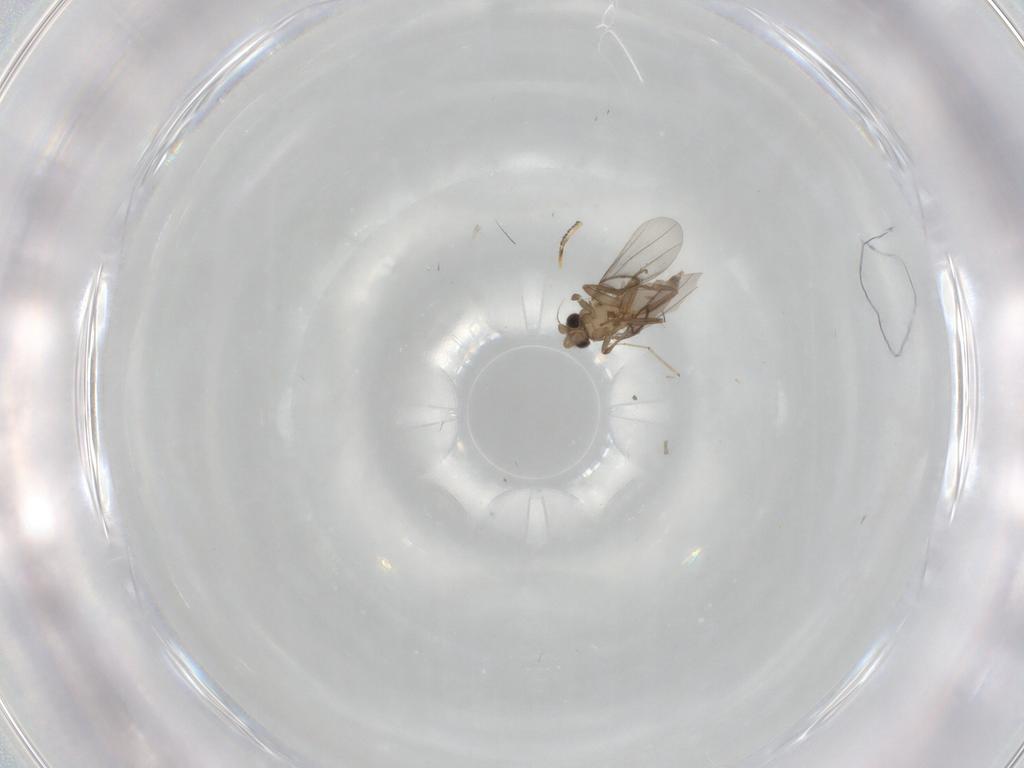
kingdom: Animalia
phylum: Arthropoda
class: Insecta
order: Diptera
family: Ceratopogonidae
